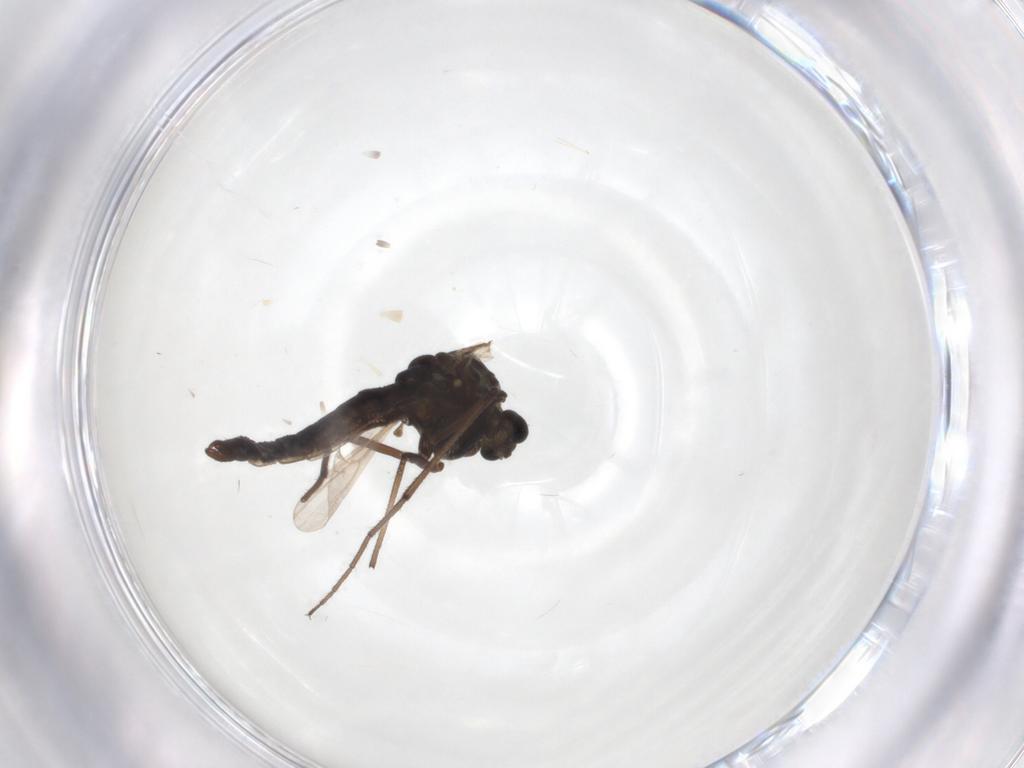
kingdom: Animalia
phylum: Arthropoda
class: Insecta
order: Diptera
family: Chironomidae
